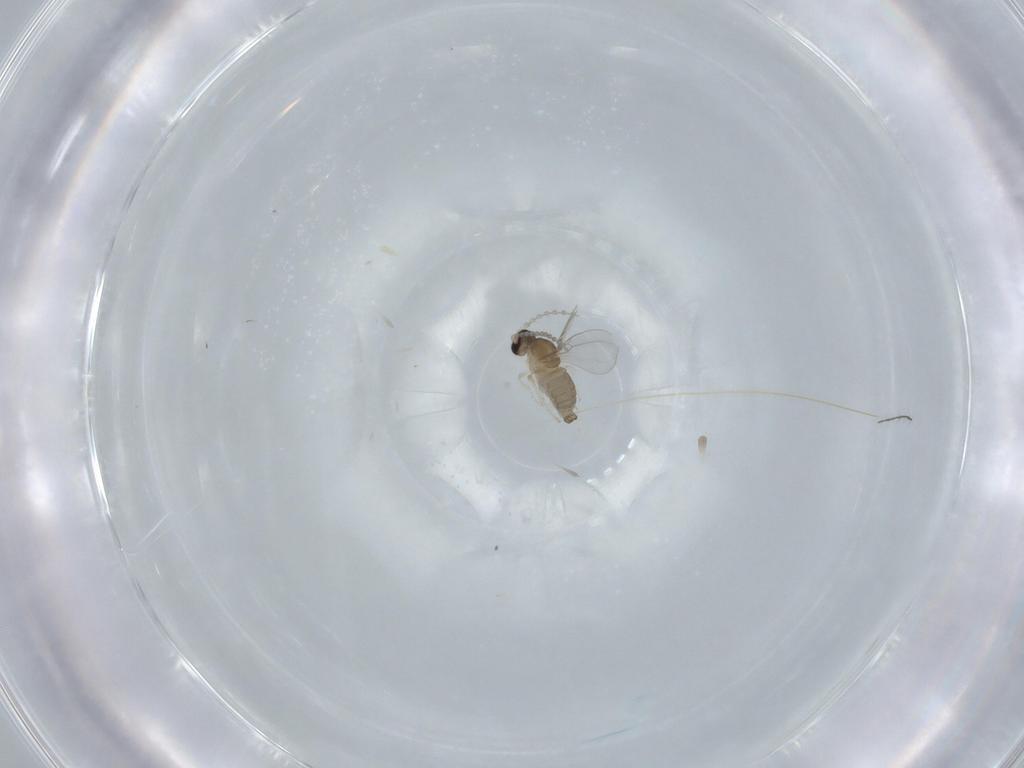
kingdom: Animalia
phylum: Arthropoda
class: Insecta
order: Diptera
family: Cecidomyiidae
